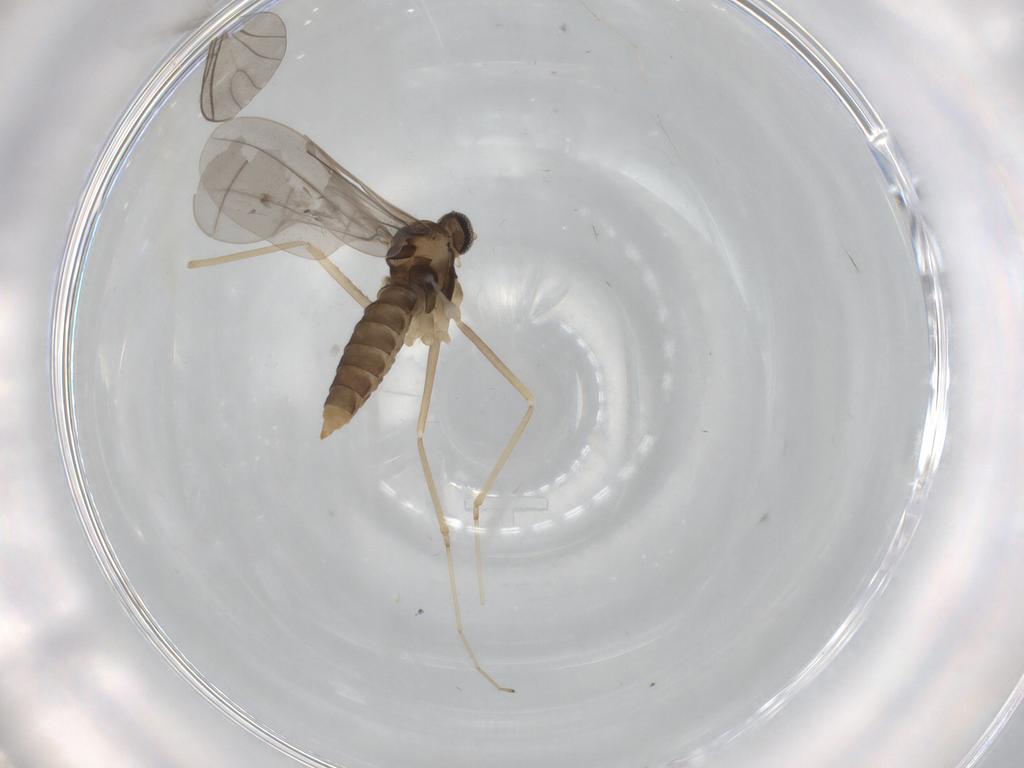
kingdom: Animalia
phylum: Arthropoda
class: Insecta
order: Diptera
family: Cecidomyiidae
